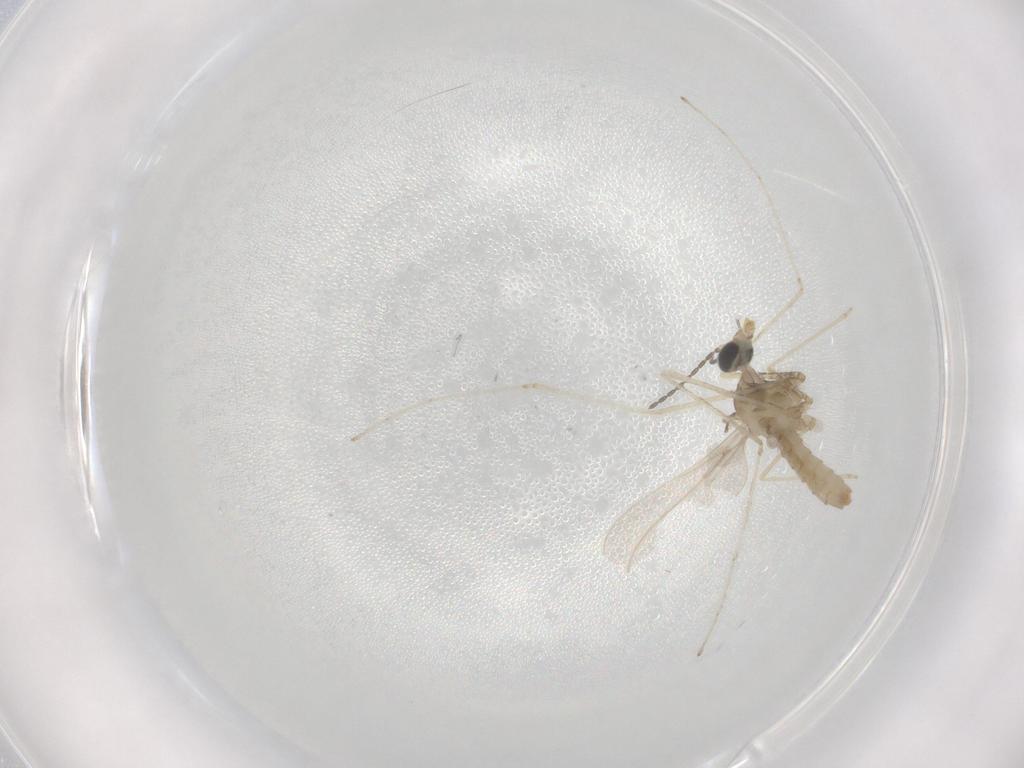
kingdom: Animalia
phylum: Arthropoda
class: Insecta
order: Diptera
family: Cecidomyiidae
